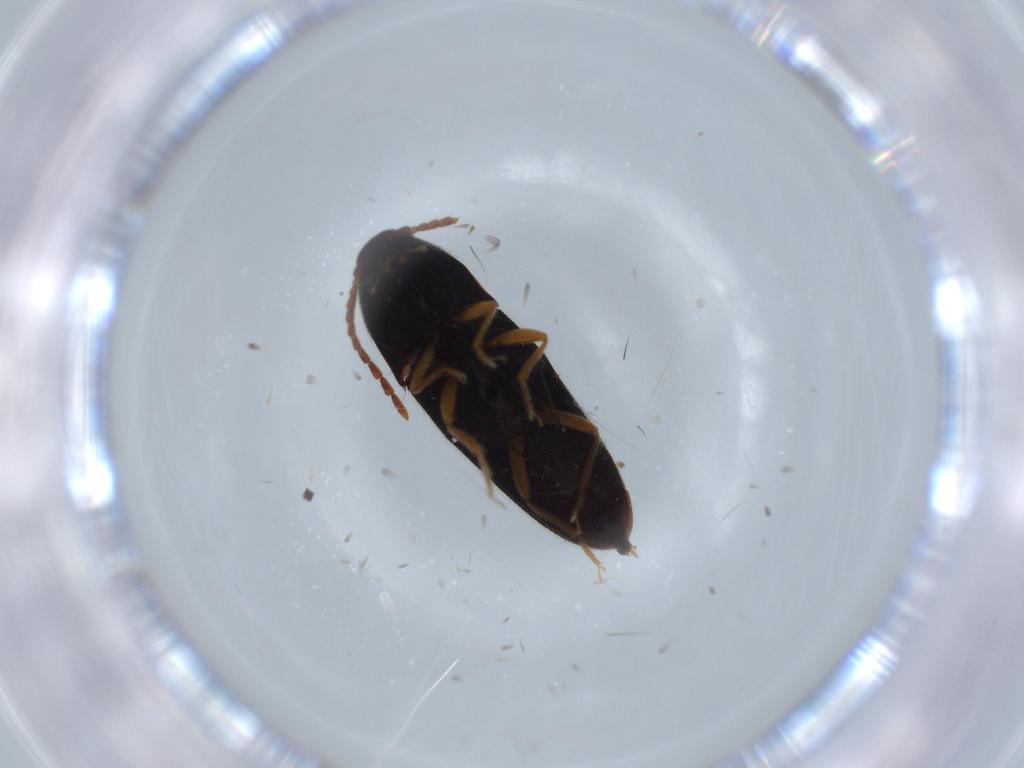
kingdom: Animalia
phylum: Arthropoda
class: Insecta
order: Coleoptera
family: Elateridae
